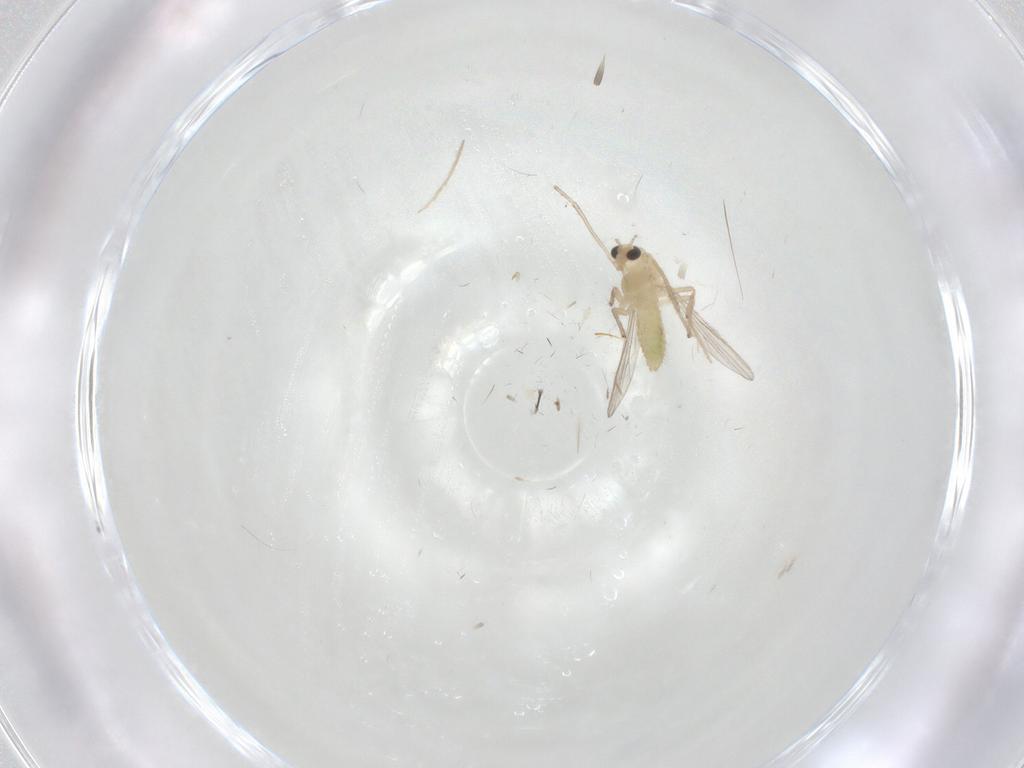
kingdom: Animalia
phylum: Arthropoda
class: Insecta
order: Diptera
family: Chironomidae
